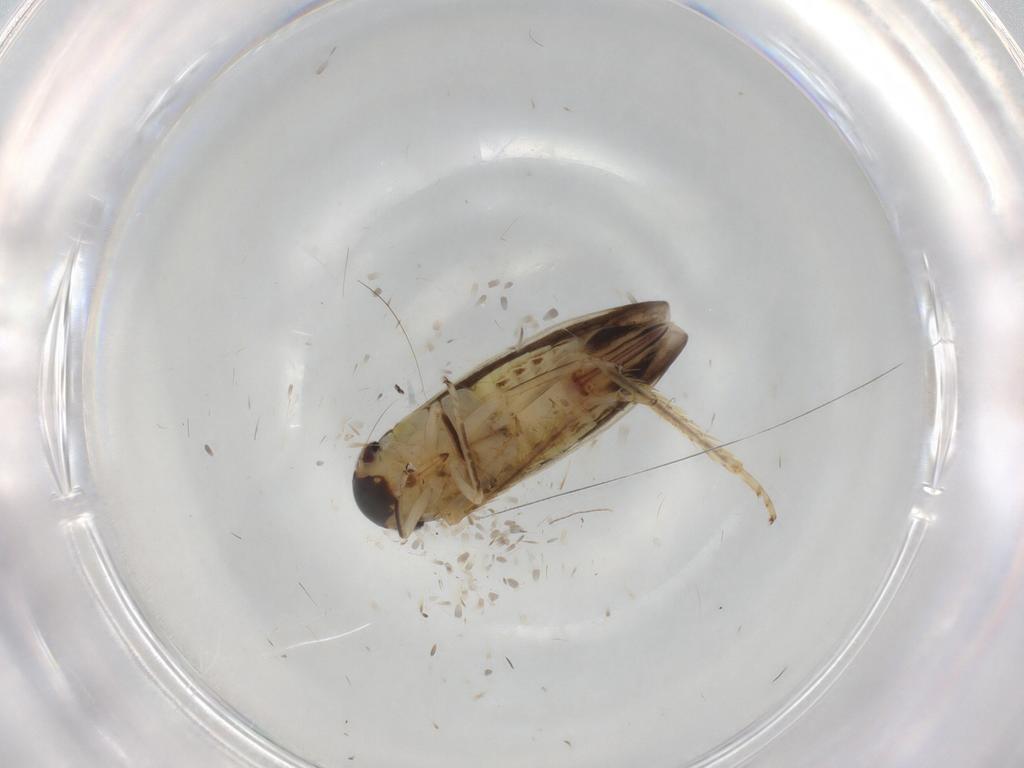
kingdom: Animalia
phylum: Arthropoda
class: Insecta
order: Hemiptera
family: Cicadellidae
